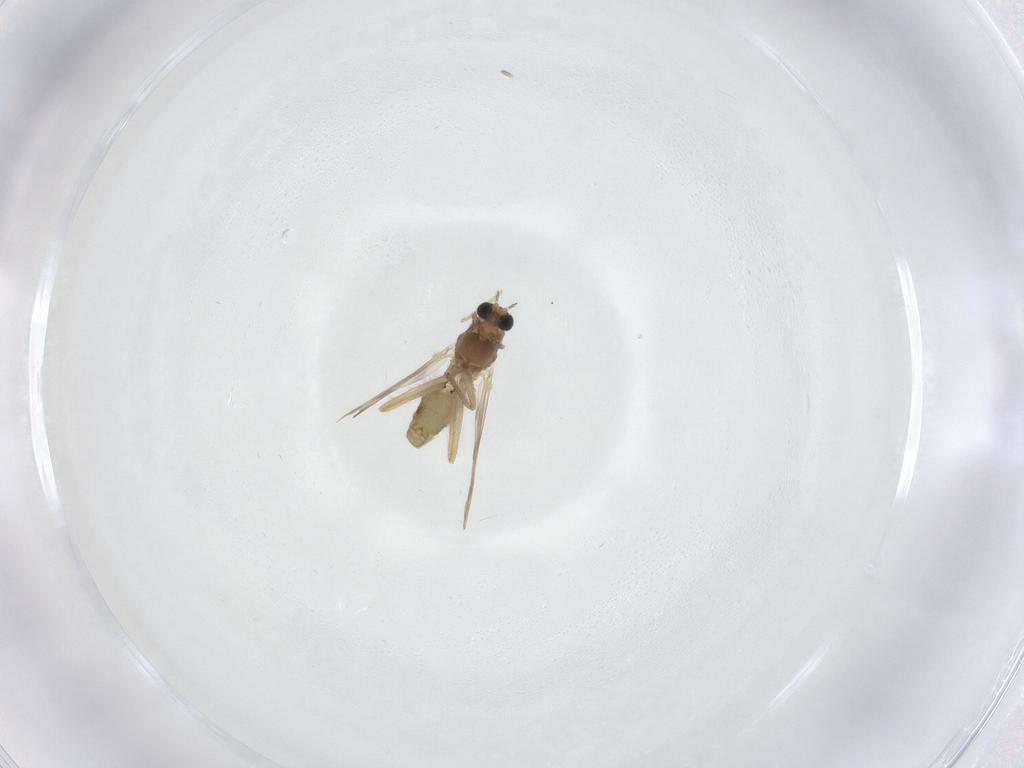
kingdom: Animalia
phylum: Arthropoda
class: Insecta
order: Diptera
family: Chironomidae
